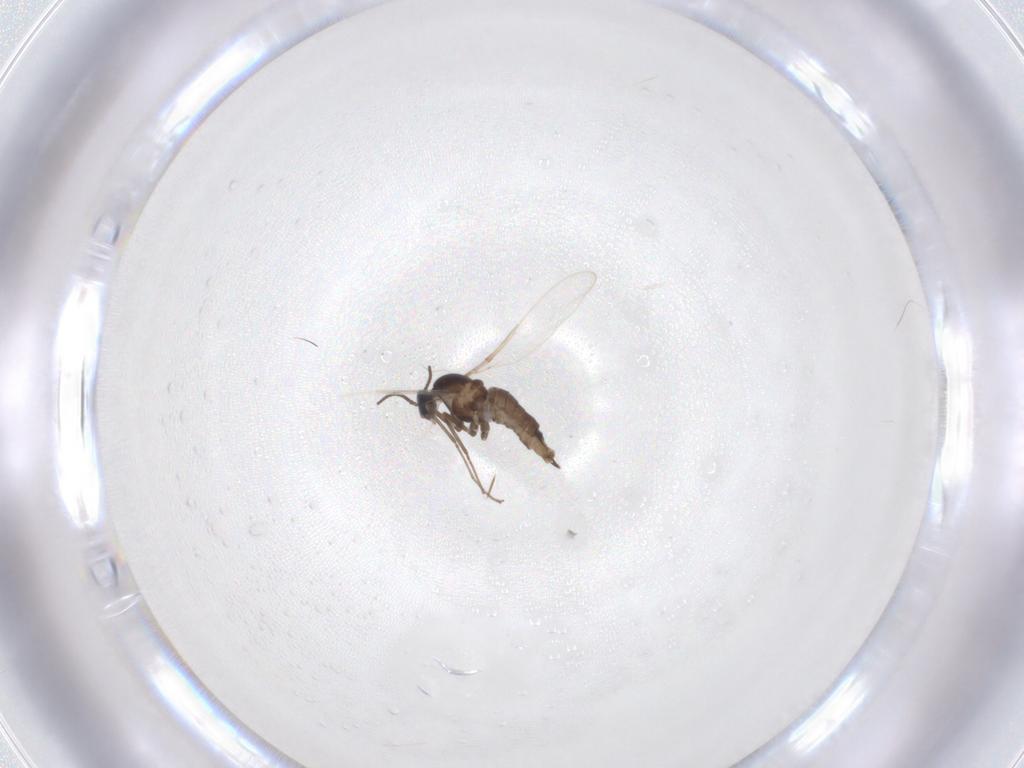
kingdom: Animalia
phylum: Arthropoda
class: Insecta
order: Diptera
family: Cecidomyiidae
